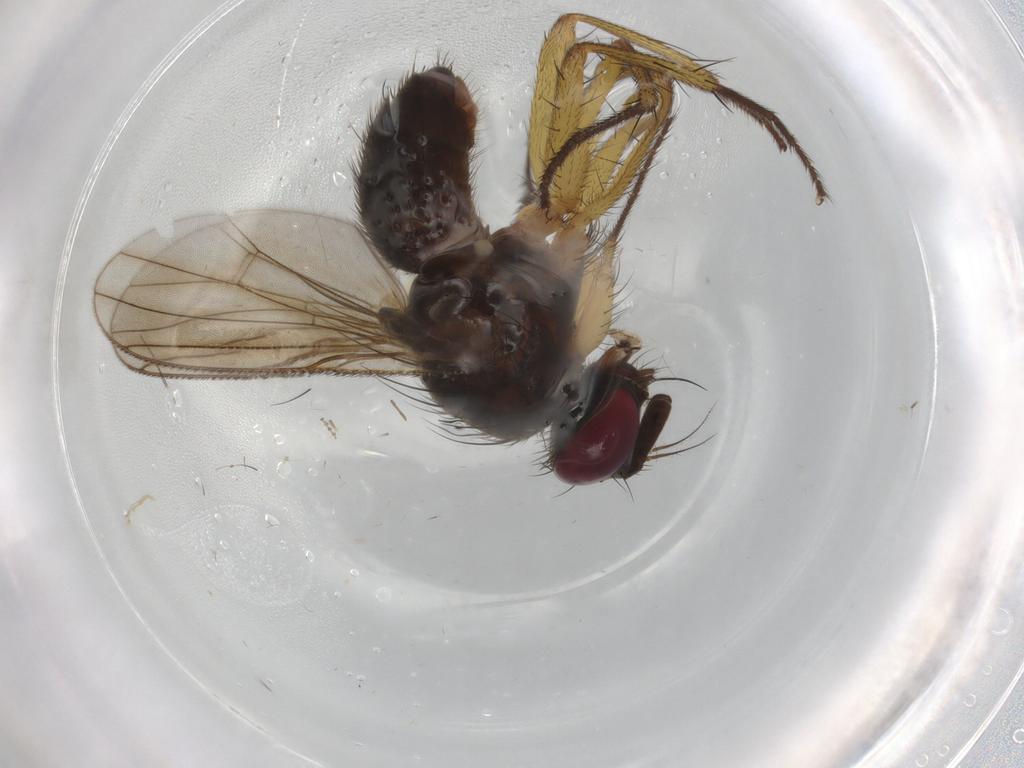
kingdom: Animalia
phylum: Arthropoda
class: Insecta
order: Diptera
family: Muscidae
